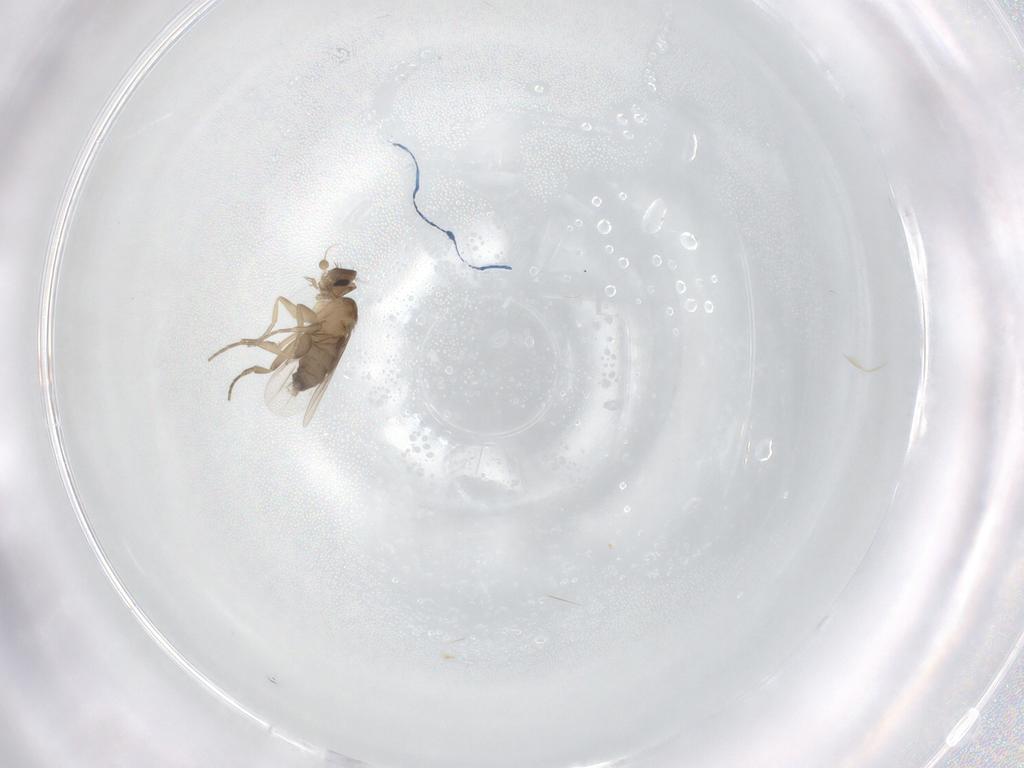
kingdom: Animalia
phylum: Arthropoda
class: Insecta
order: Diptera
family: Phoridae
